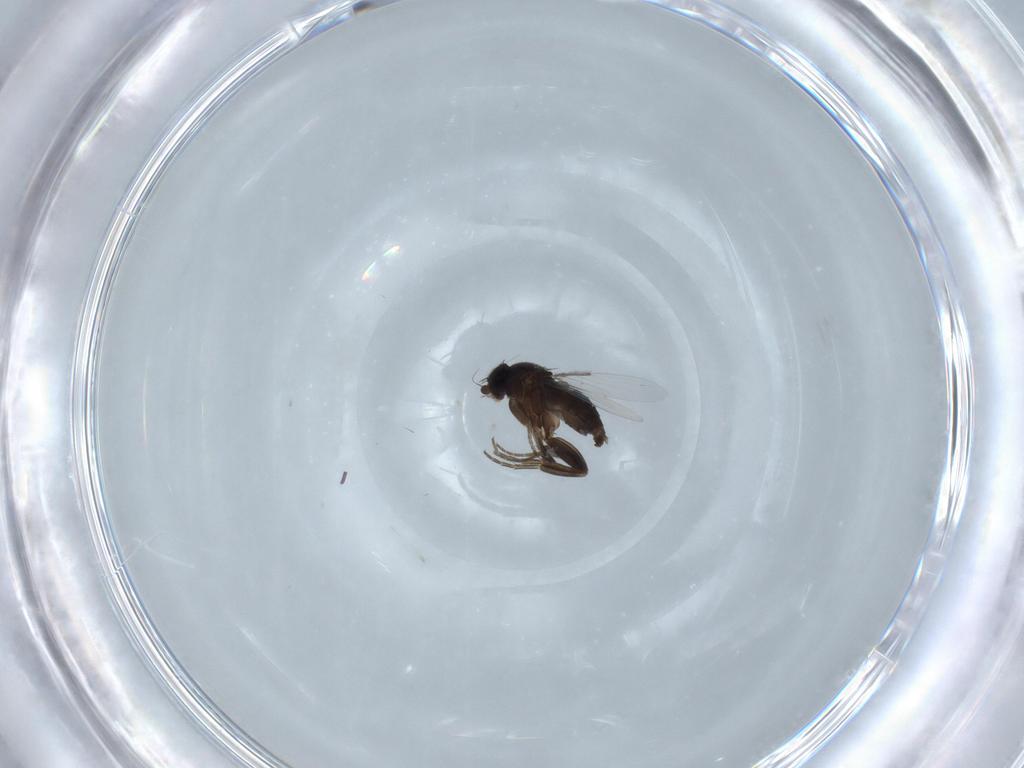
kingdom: Animalia
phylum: Arthropoda
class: Insecta
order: Diptera
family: Phoridae
